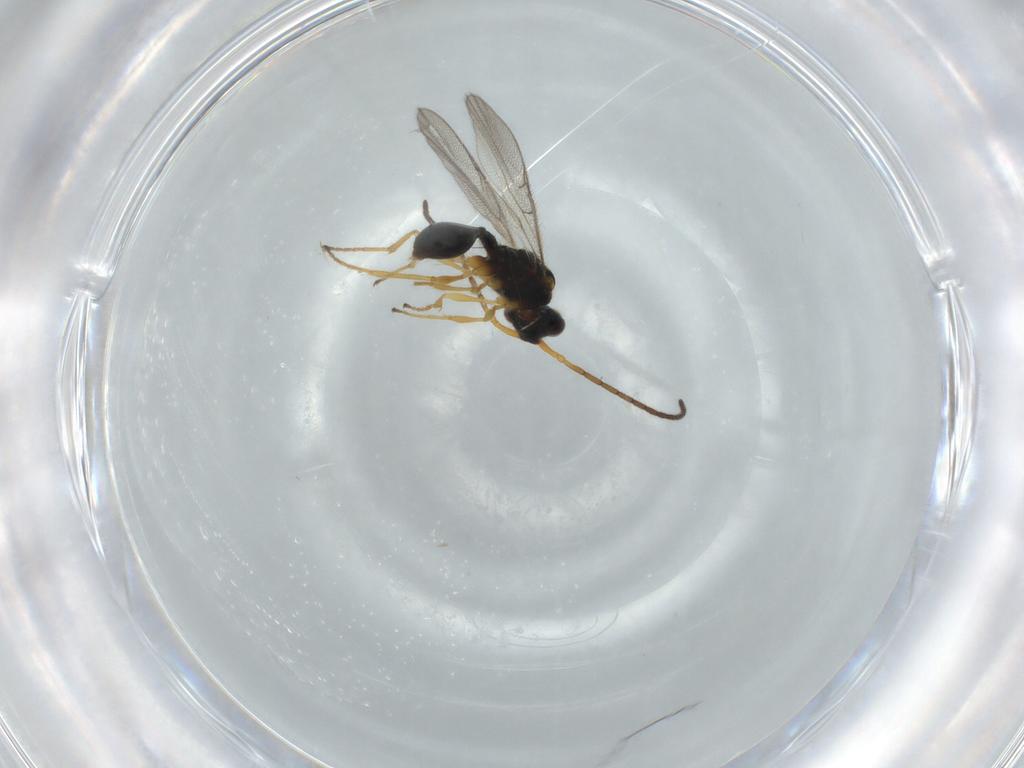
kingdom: Animalia
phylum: Arthropoda
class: Insecta
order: Hymenoptera
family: Diapriidae
